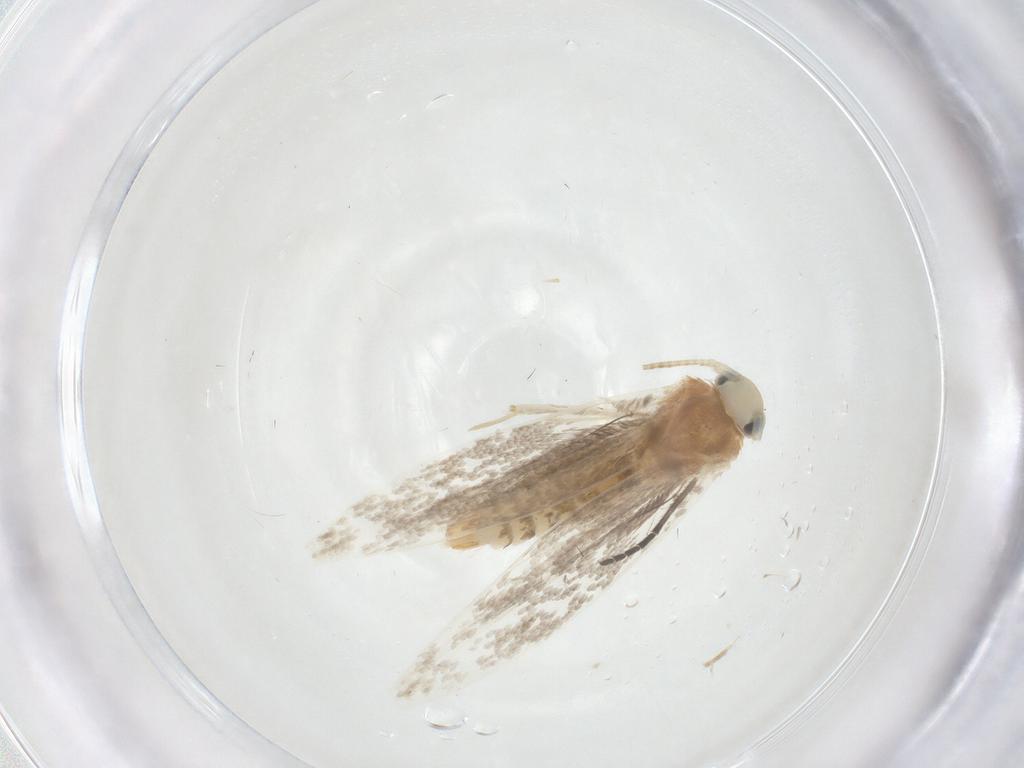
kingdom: Animalia
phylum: Arthropoda
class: Insecta
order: Lepidoptera
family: Gracillariidae
